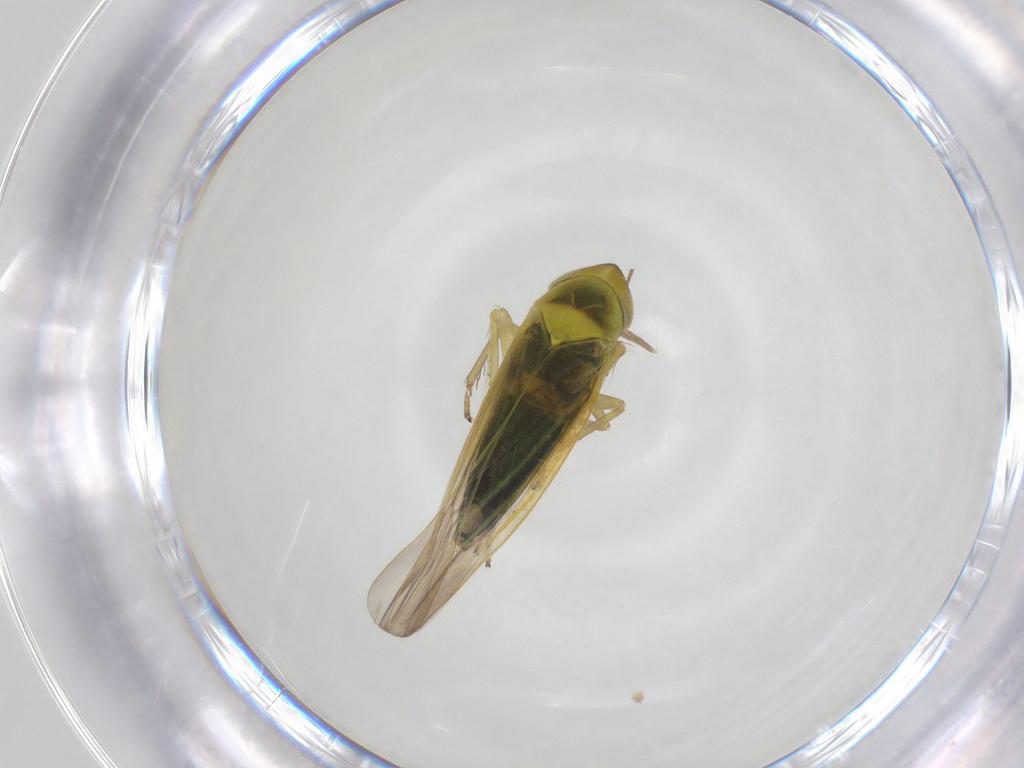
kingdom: Animalia
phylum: Arthropoda
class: Insecta
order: Hemiptera
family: Cicadellidae
